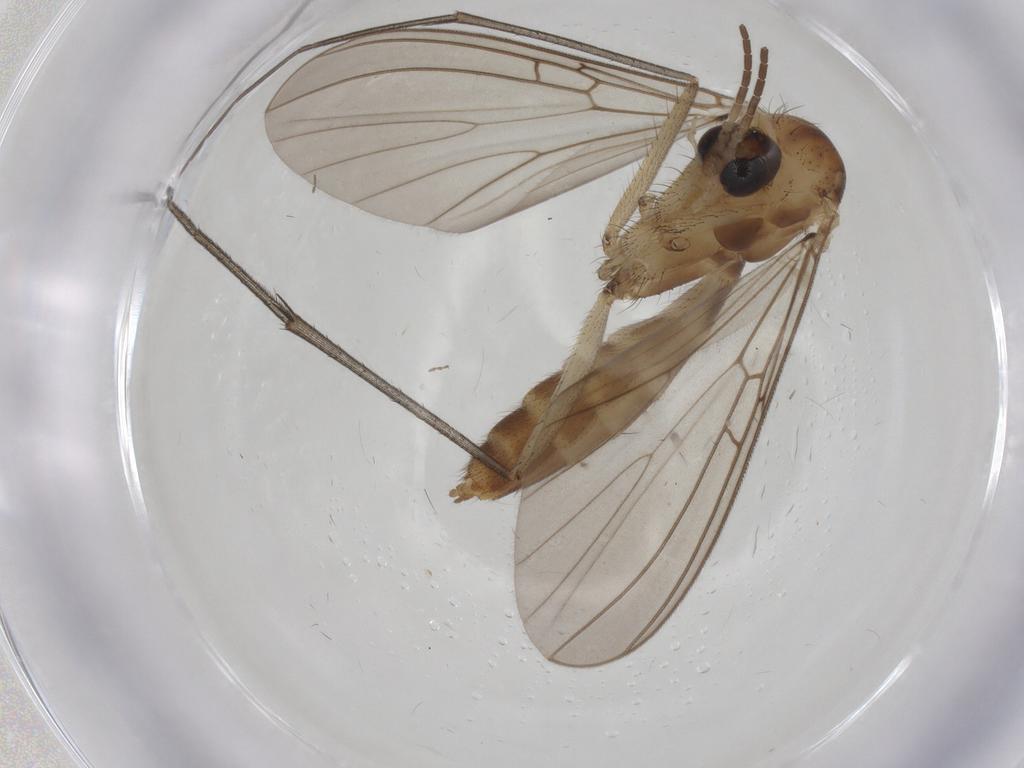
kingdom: Animalia
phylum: Arthropoda
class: Insecta
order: Diptera
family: Mycetophilidae
